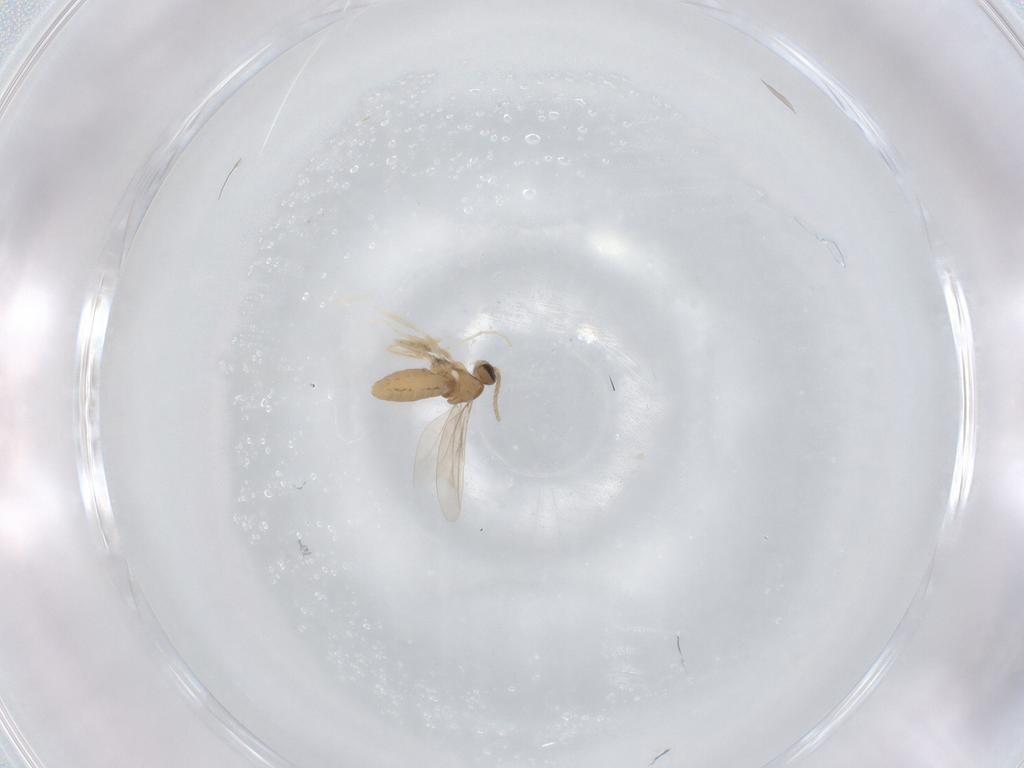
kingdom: Animalia
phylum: Arthropoda
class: Insecta
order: Diptera
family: Cecidomyiidae
